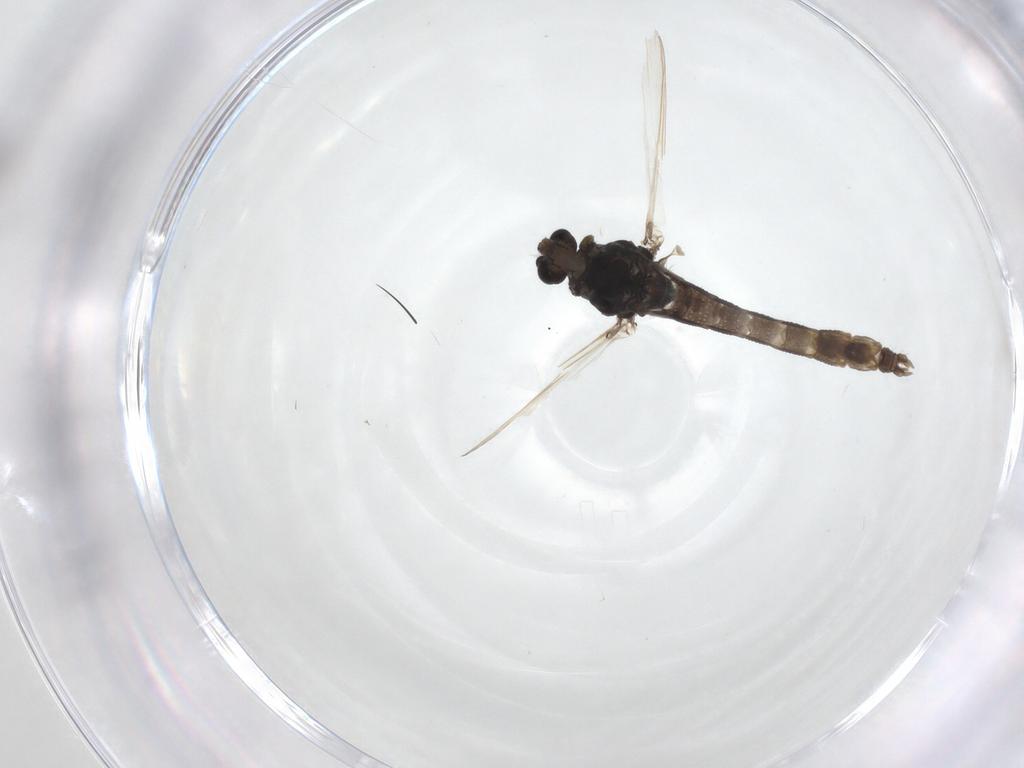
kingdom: Animalia
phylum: Arthropoda
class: Insecta
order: Diptera
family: Chironomidae
